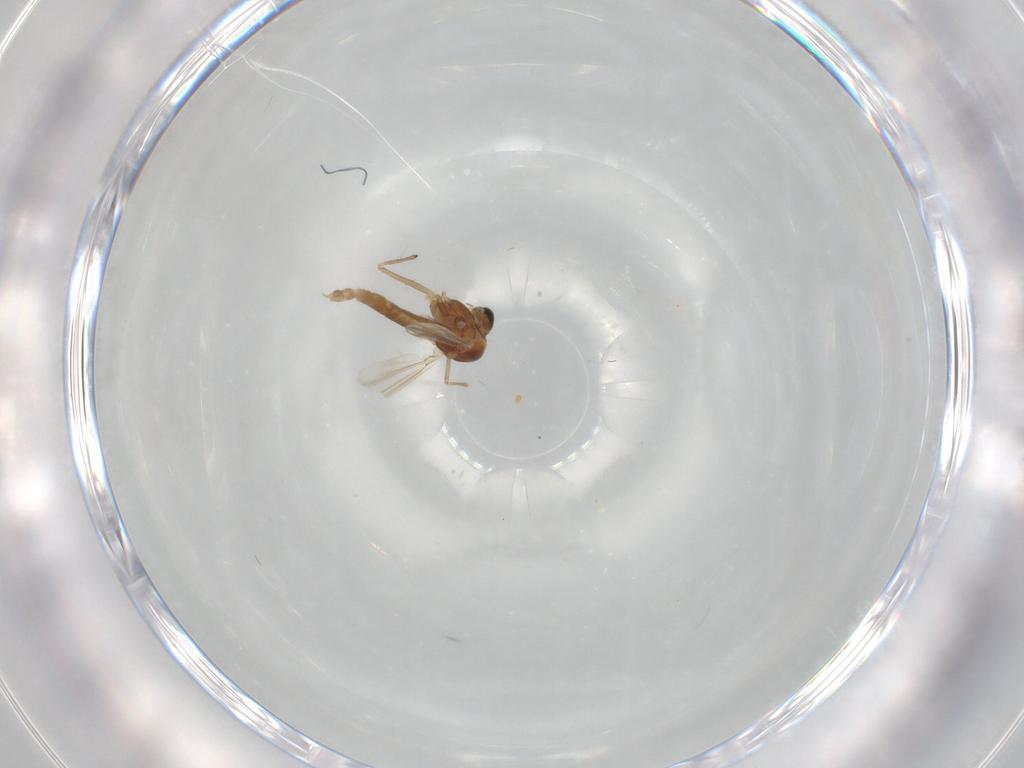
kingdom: Animalia
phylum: Arthropoda
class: Insecta
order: Diptera
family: Chironomidae
